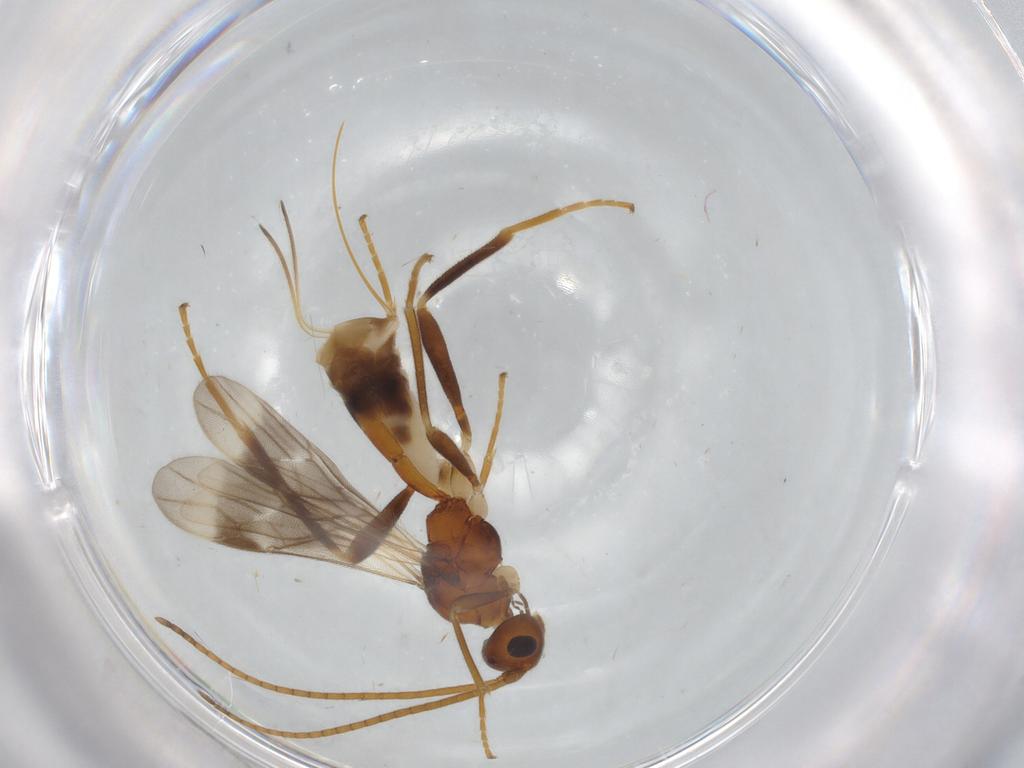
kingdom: Animalia
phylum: Arthropoda
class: Insecta
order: Hymenoptera
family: Braconidae
